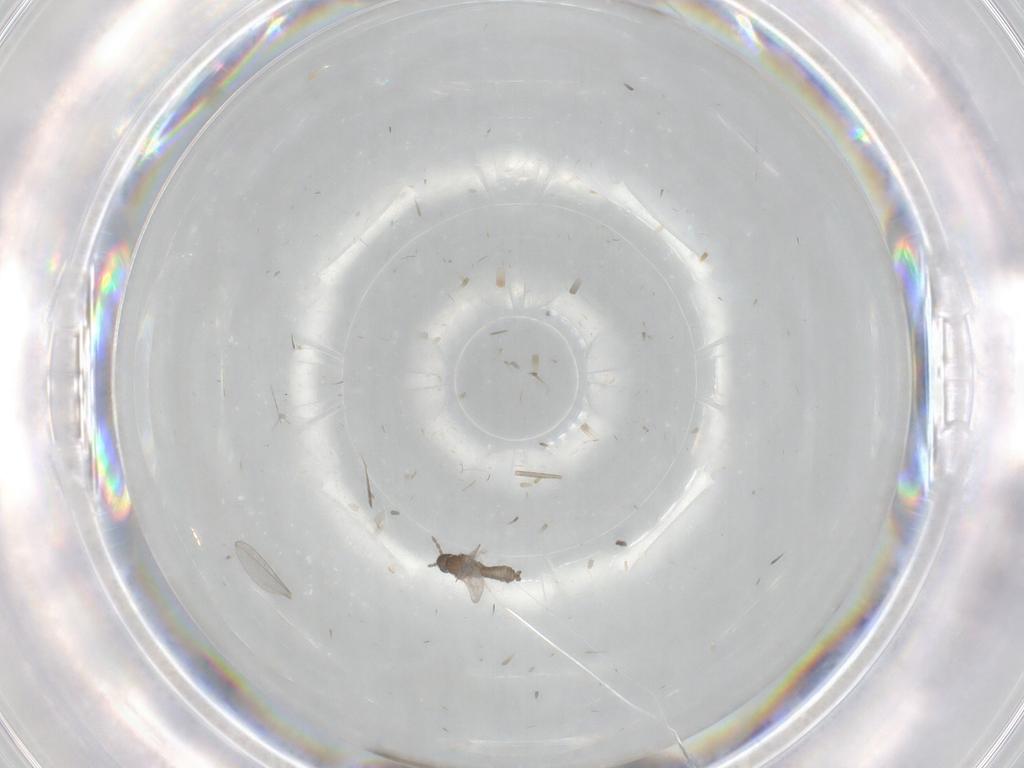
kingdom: Animalia
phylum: Arthropoda
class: Insecta
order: Diptera
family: Cecidomyiidae
